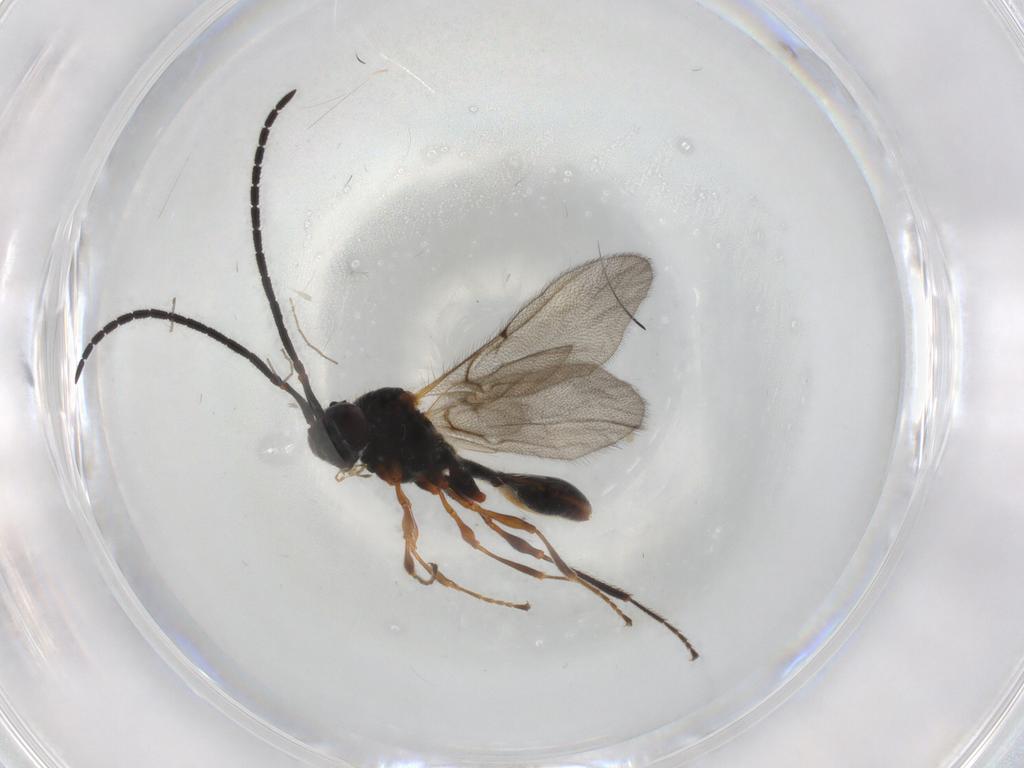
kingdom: Animalia
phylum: Arthropoda
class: Insecta
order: Hymenoptera
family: Diapriidae
